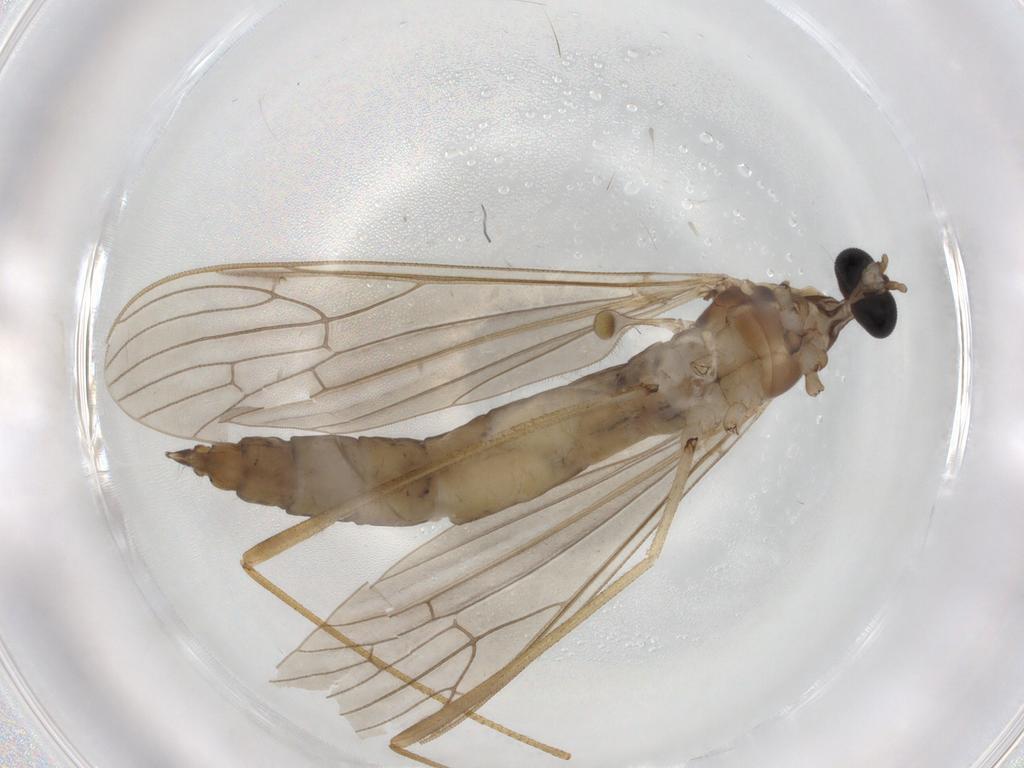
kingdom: Animalia
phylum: Arthropoda
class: Insecta
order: Diptera
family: Limoniidae
